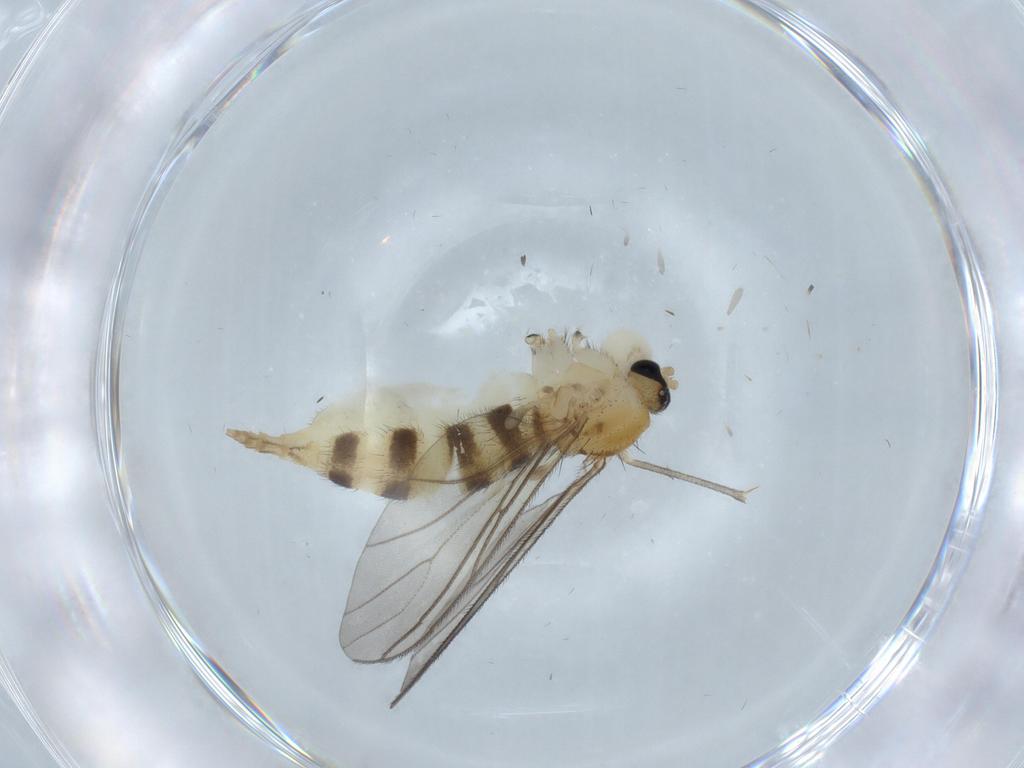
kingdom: Animalia
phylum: Arthropoda
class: Insecta
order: Diptera
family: Sciaridae
